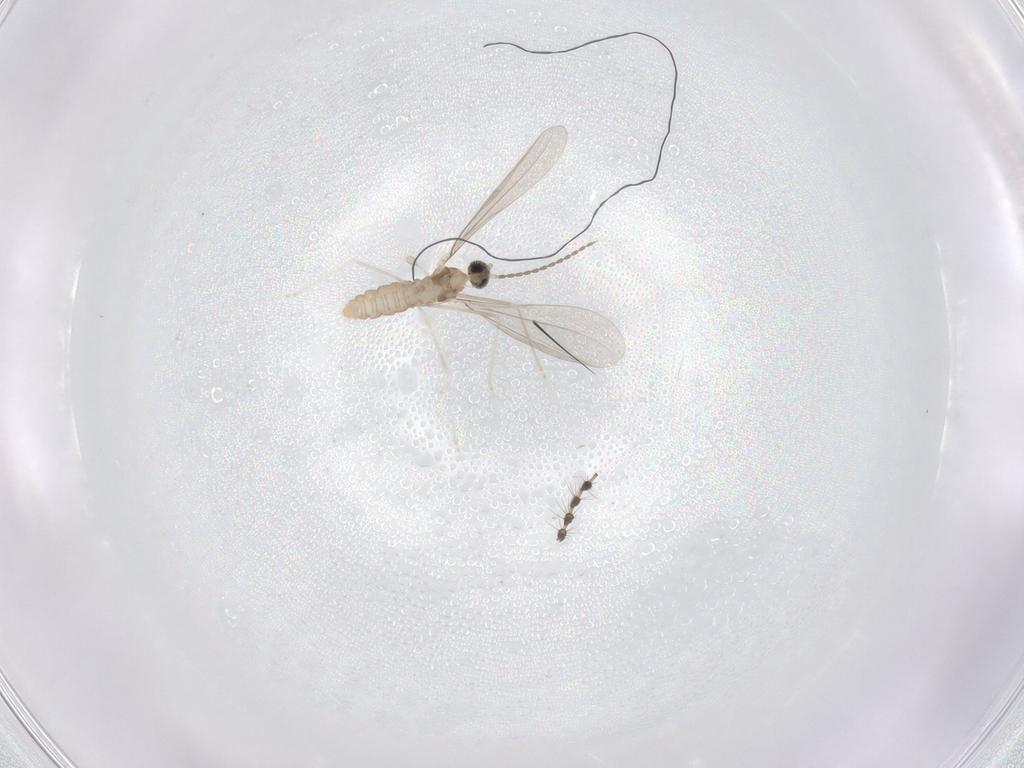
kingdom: Animalia
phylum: Arthropoda
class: Insecta
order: Diptera
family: Cecidomyiidae
